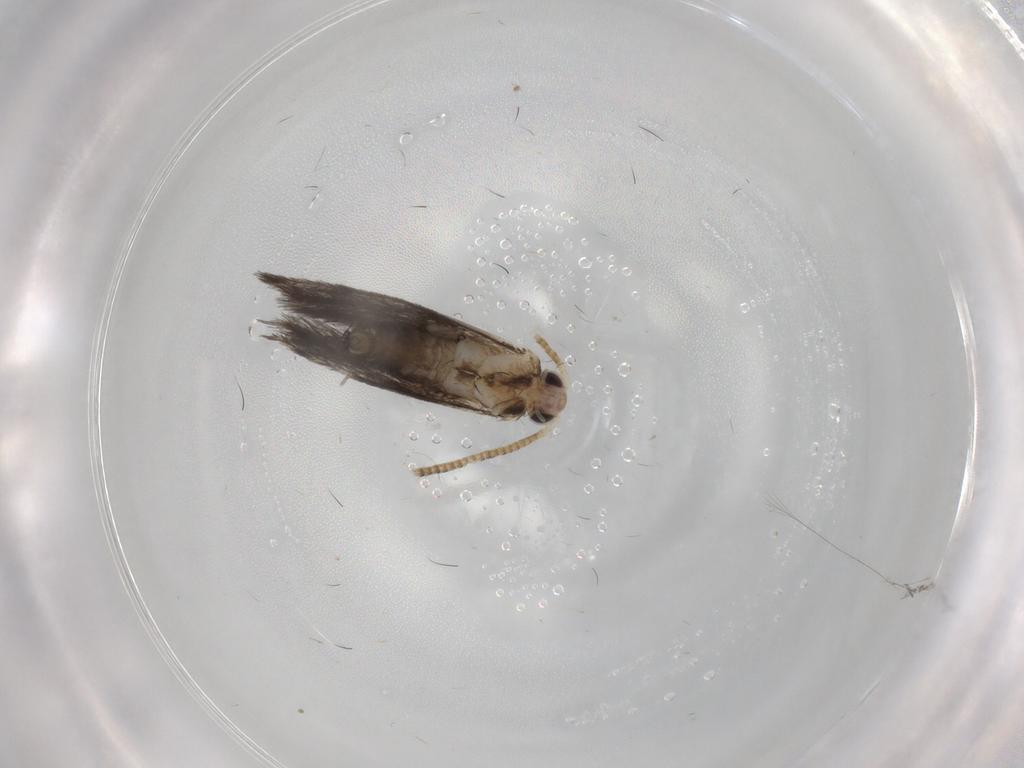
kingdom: Animalia
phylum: Arthropoda
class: Insecta
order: Lepidoptera
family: Tineidae
